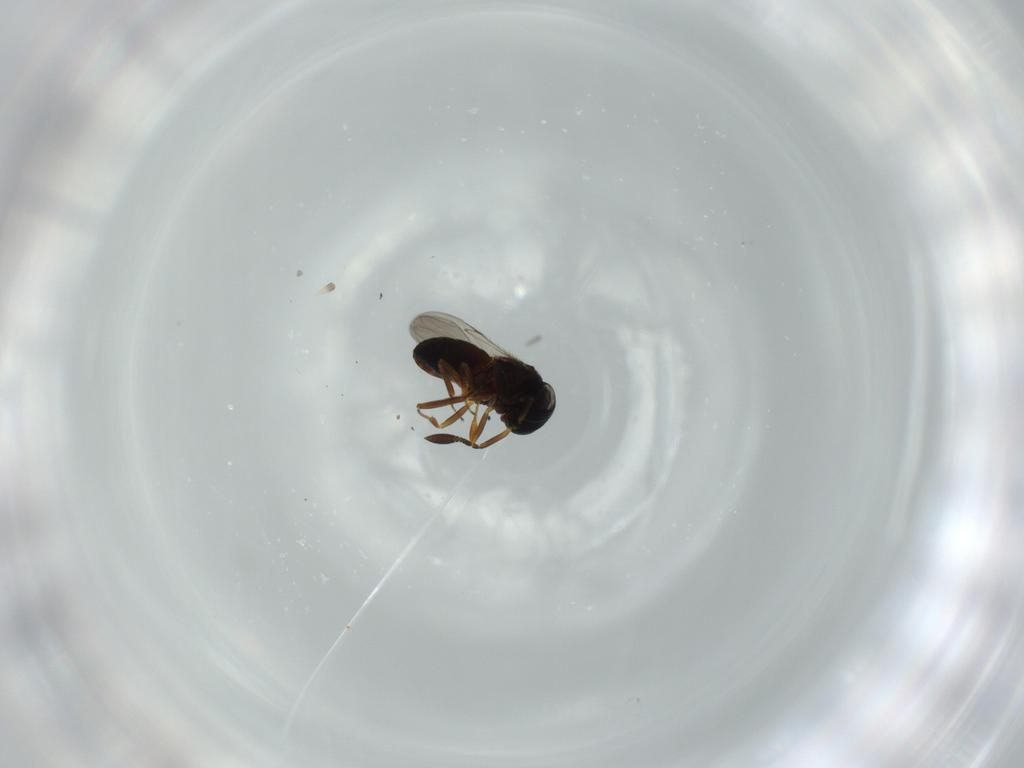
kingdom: Animalia
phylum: Arthropoda
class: Insecta
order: Coleoptera
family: Curculionidae
